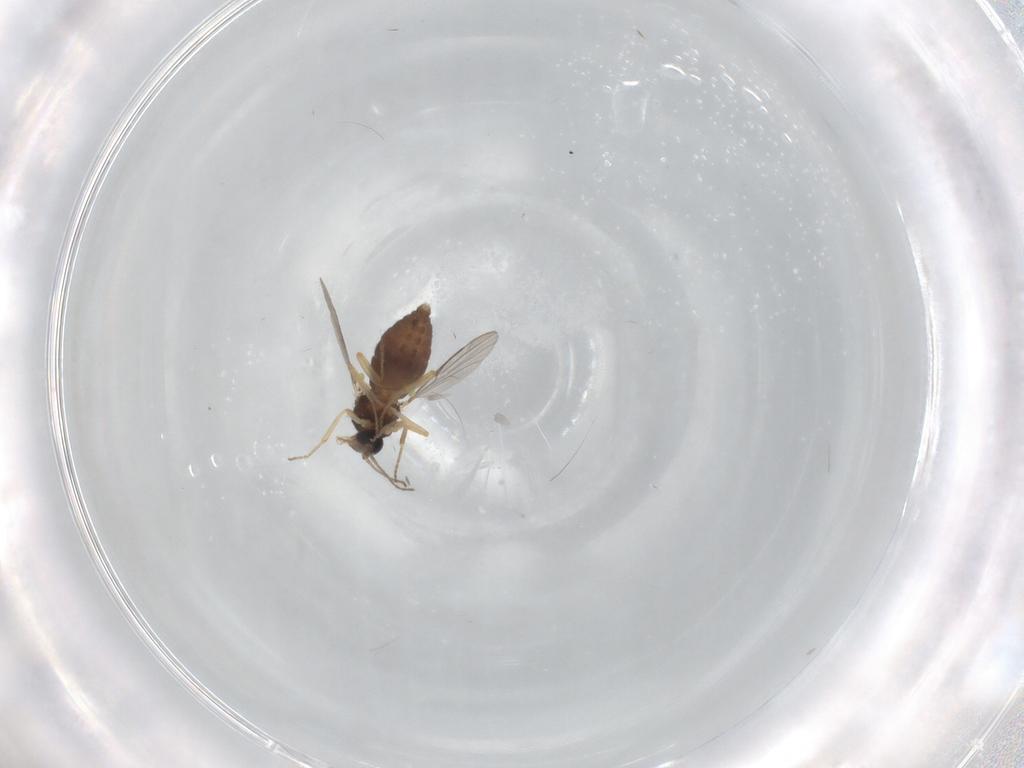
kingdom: Animalia
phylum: Arthropoda
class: Insecta
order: Diptera
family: Ceratopogonidae
